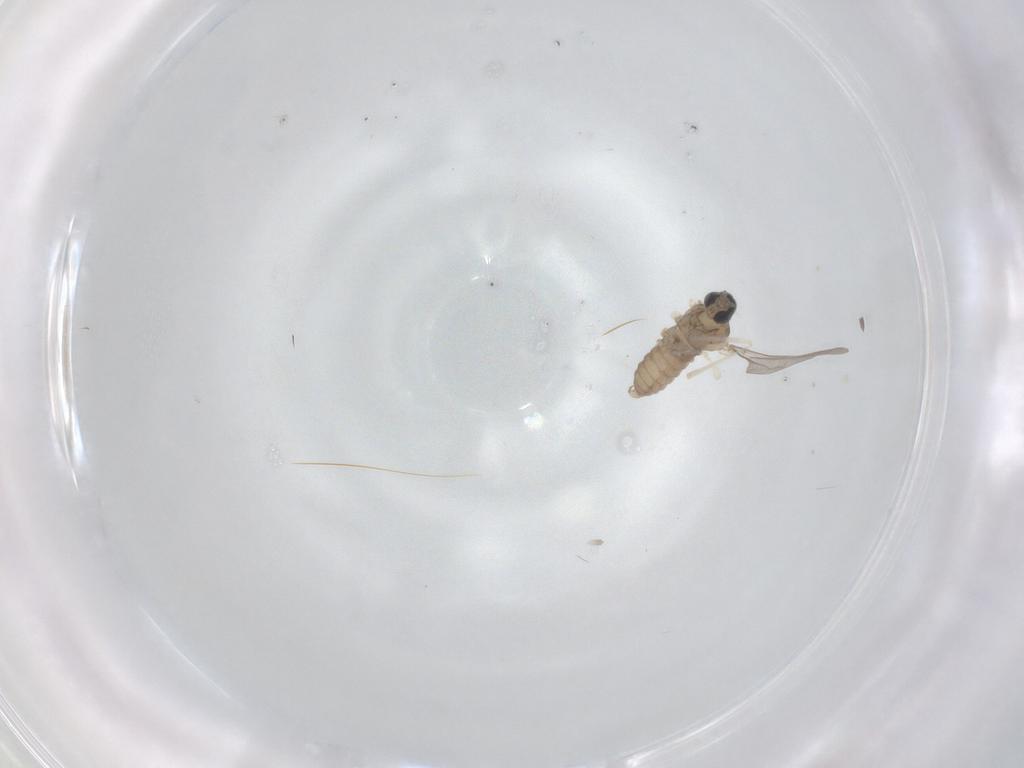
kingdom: Animalia
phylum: Arthropoda
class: Insecta
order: Diptera
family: Cecidomyiidae
